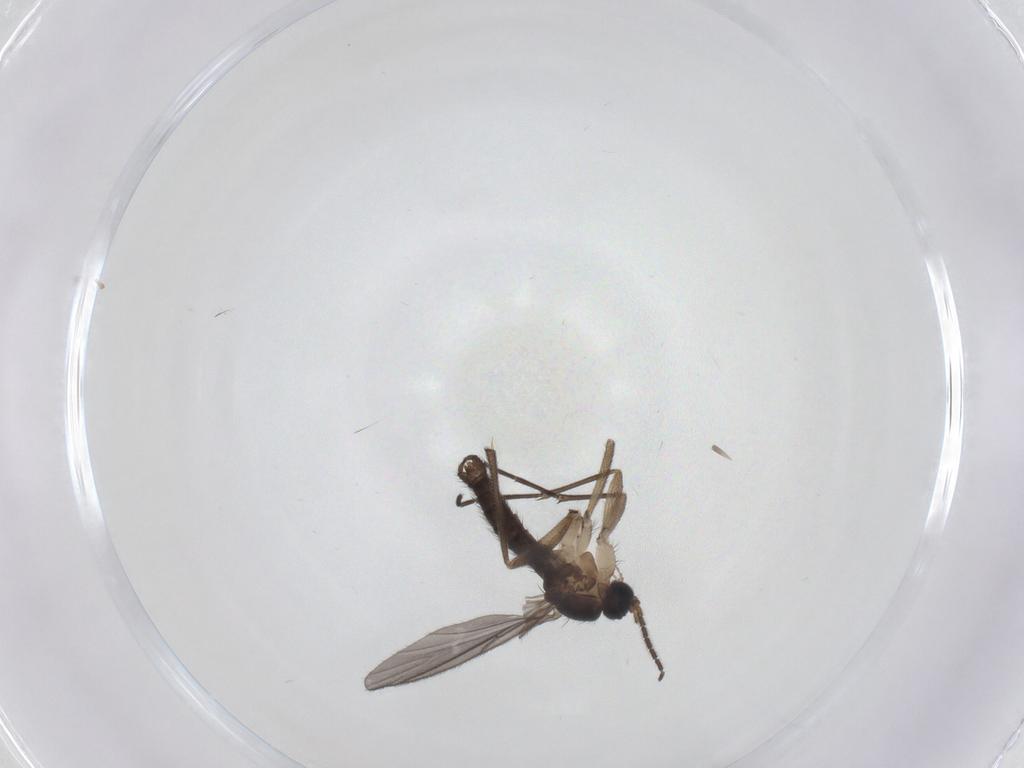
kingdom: Animalia
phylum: Arthropoda
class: Insecta
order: Diptera
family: Sciaridae
